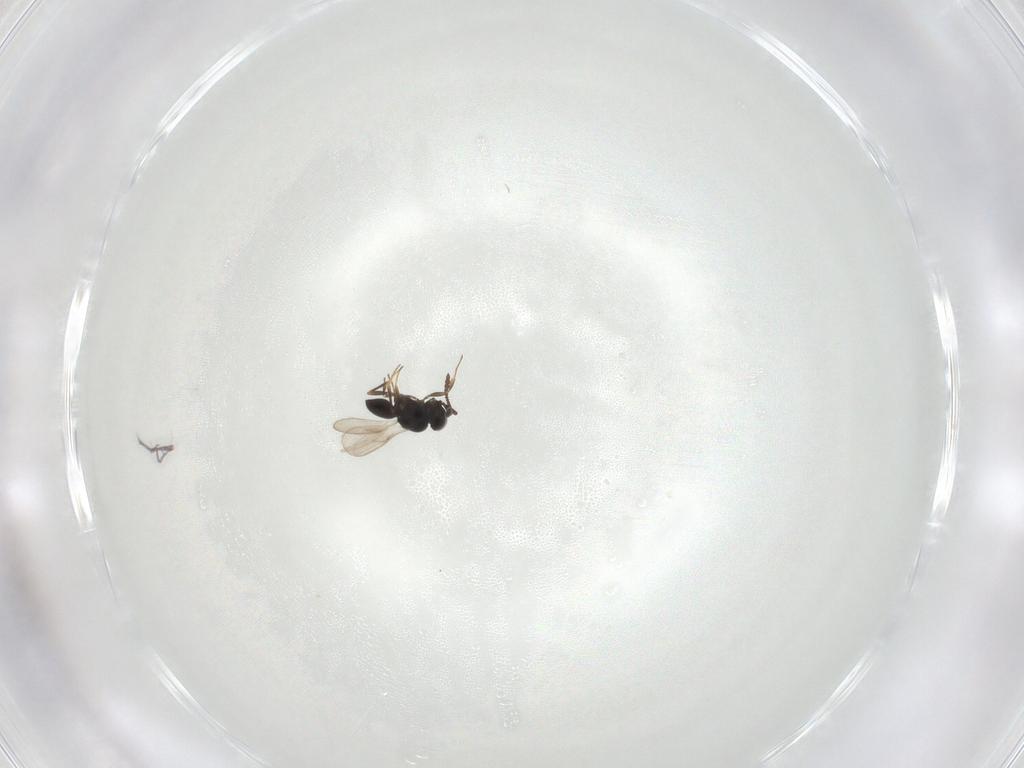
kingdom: Animalia
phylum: Arthropoda
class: Insecta
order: Hymenoptera
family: Scelionidae
